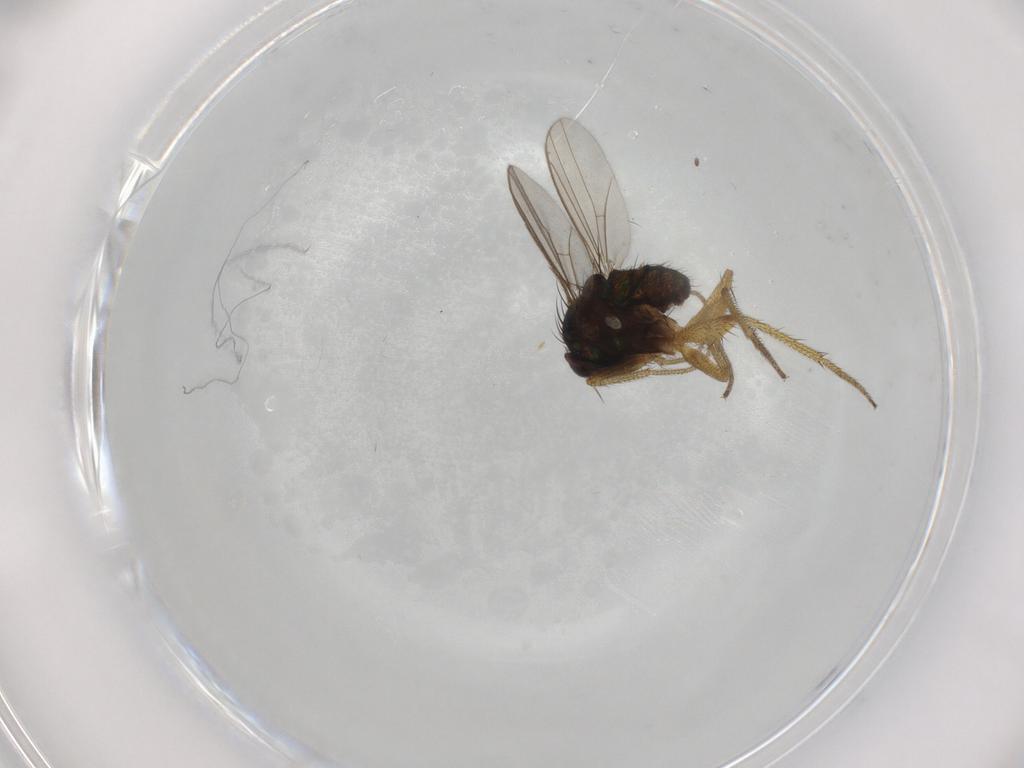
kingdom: Animalia
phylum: Arthropoda
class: Insecta
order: Diptera
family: Dolichopodidae
